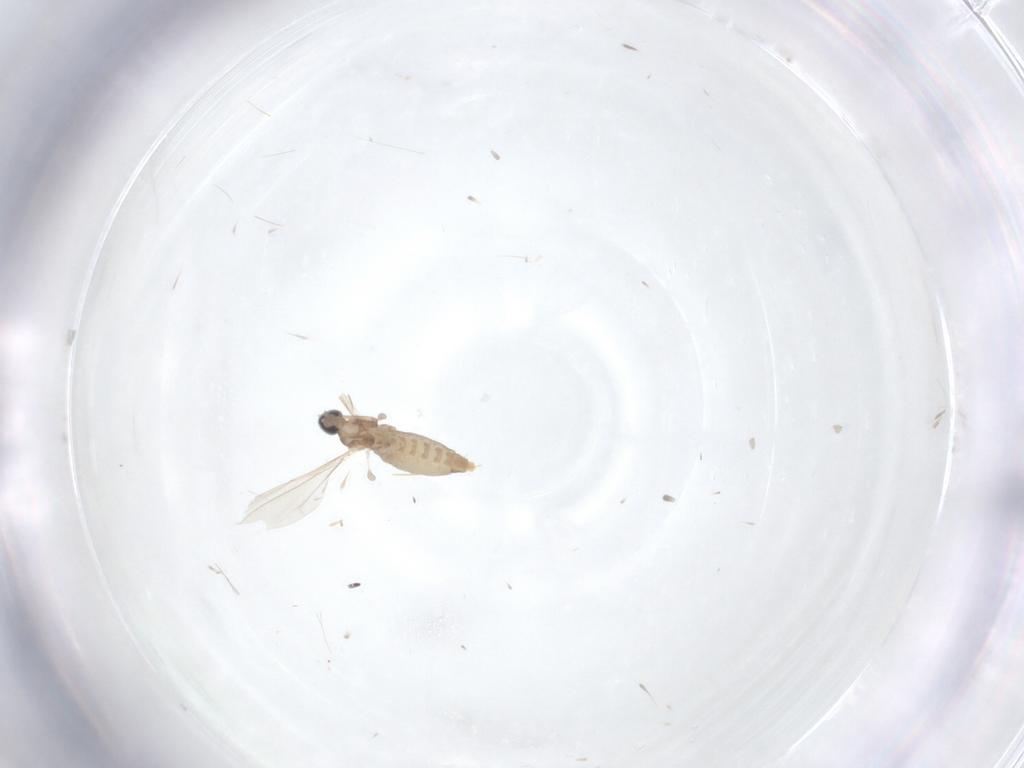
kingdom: Animalia
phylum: Arthropoda
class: Insecta
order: Diptera
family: Cecidomyiidae
